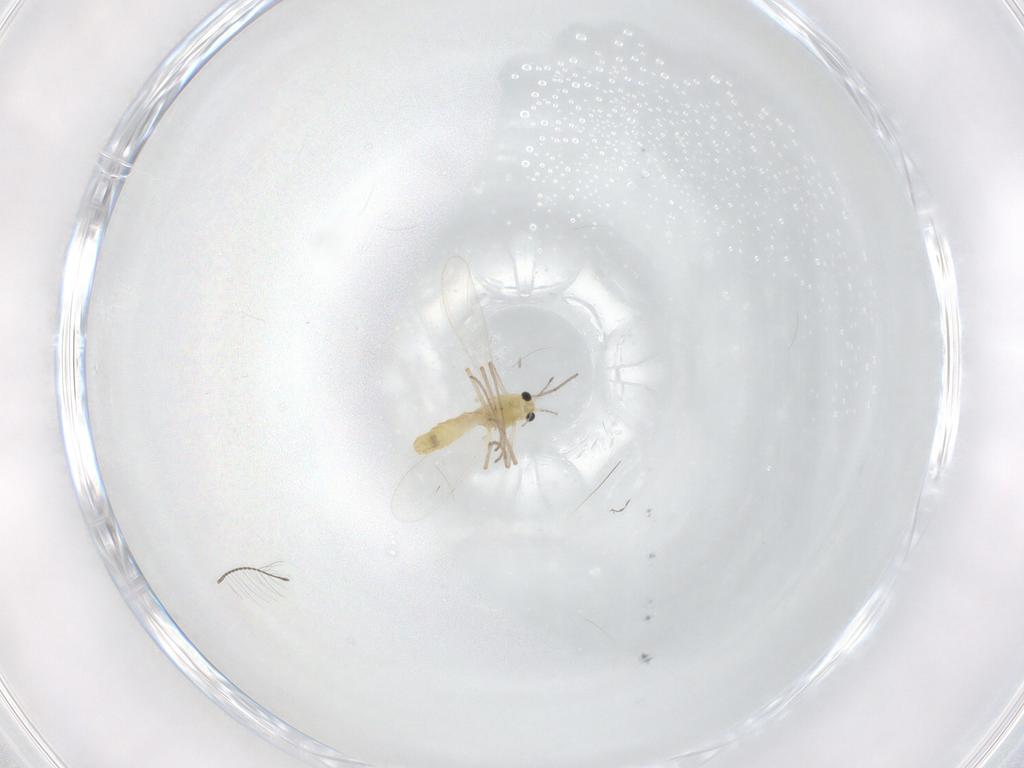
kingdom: Animalia
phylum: Arthropoda
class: Insecta
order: Diptera
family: Chironomidae
